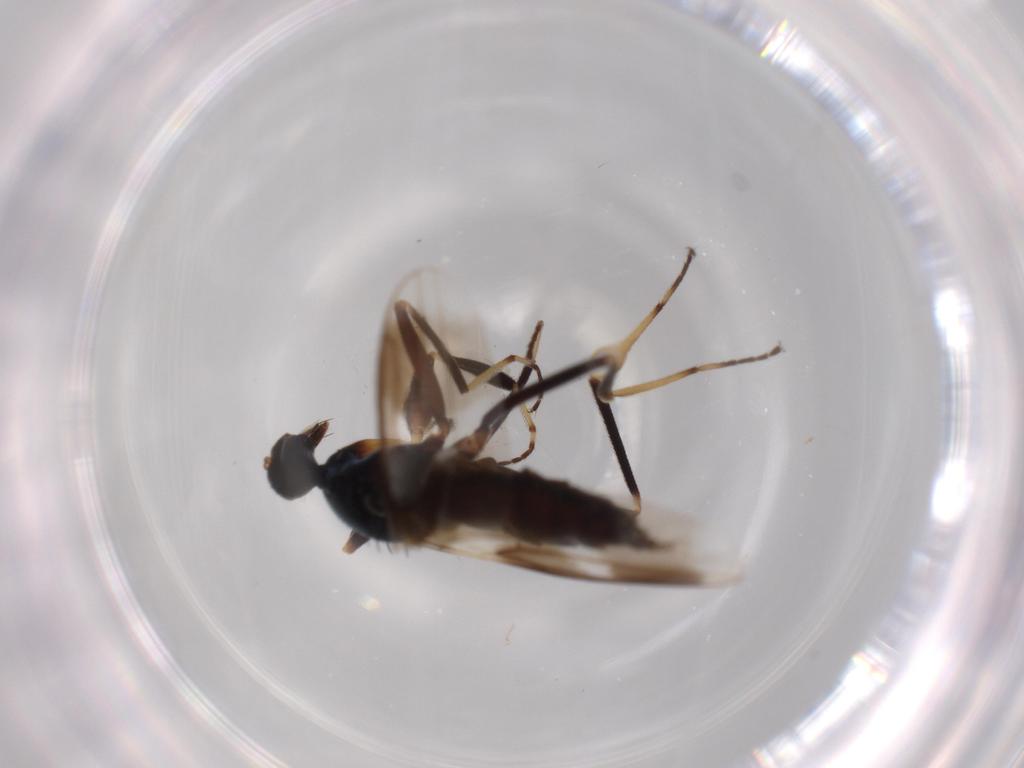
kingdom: Animalia
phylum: Arthropoda
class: Insecta
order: Diptera
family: Hybotidae
